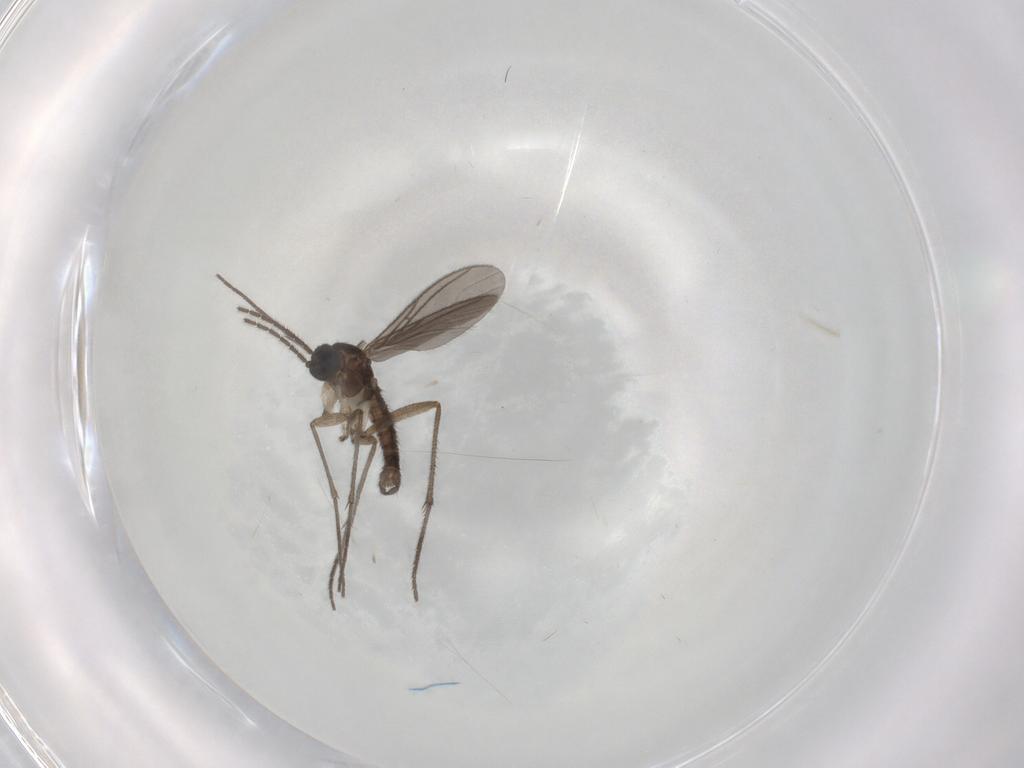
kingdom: Animalia
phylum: Arthropoda
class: Insecta
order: Diptera
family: Sciaridae
